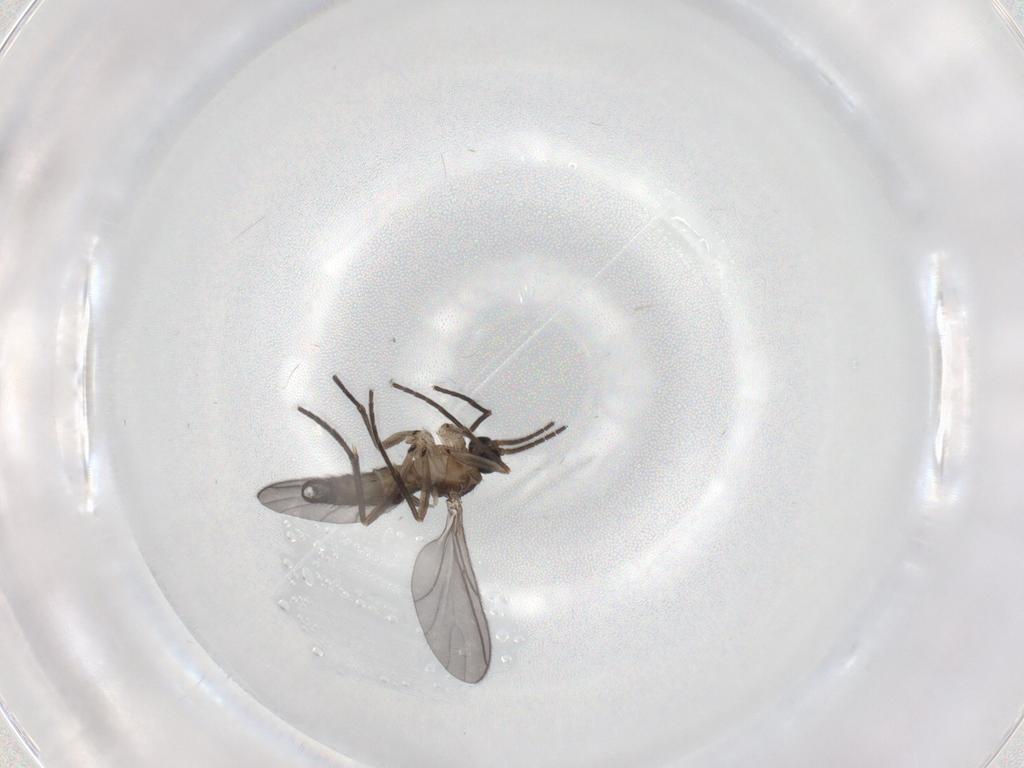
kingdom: Animalia
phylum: Arthropoda
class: Insecta
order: Diptera
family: Sciaridae
